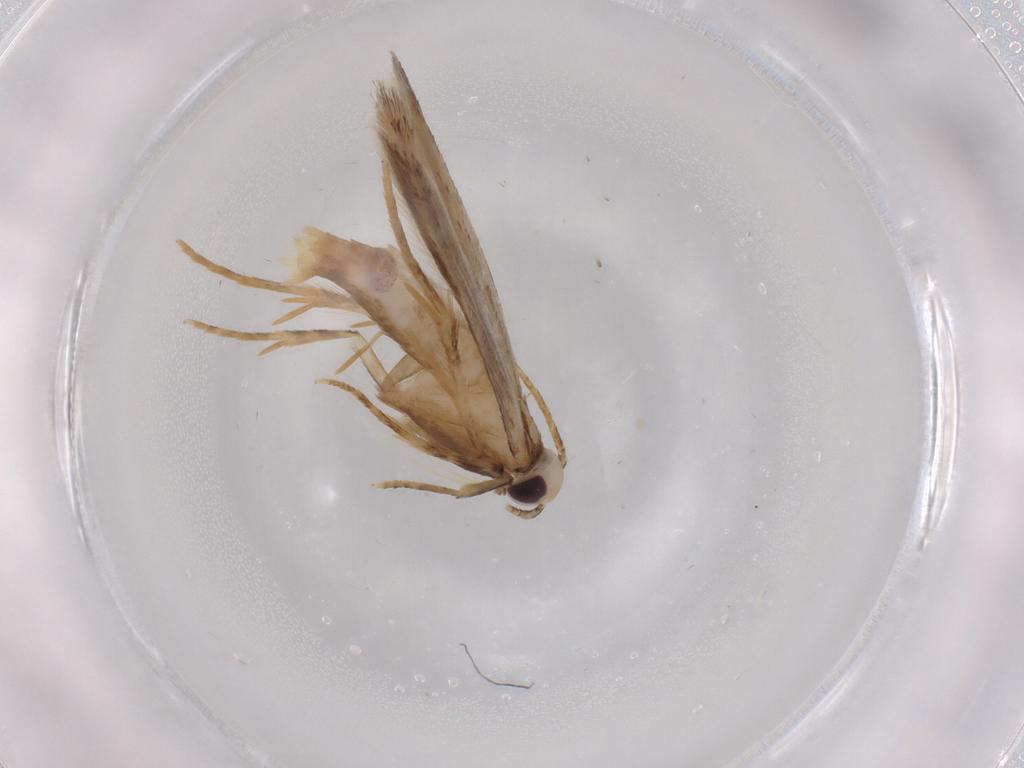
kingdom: Animalia
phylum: Arthropoda
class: Insecta
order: Lepidoptera
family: Coleophoridae
